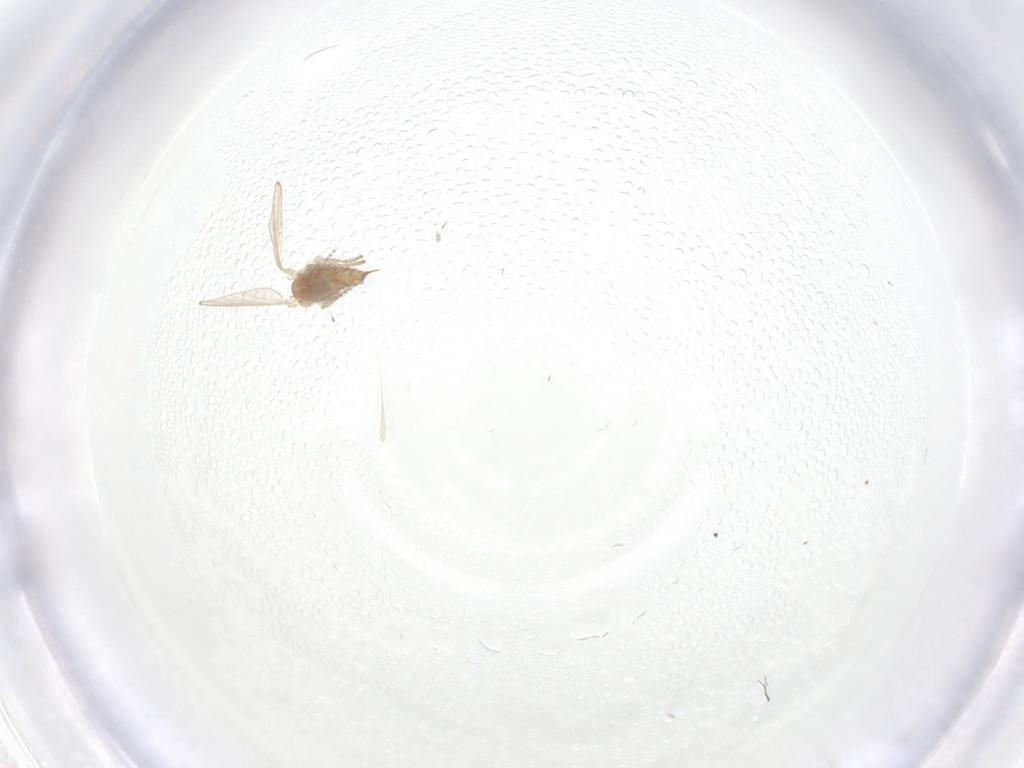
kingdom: Animalia
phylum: Arthropoda
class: Insecta
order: Diptera
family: Psychodidae
